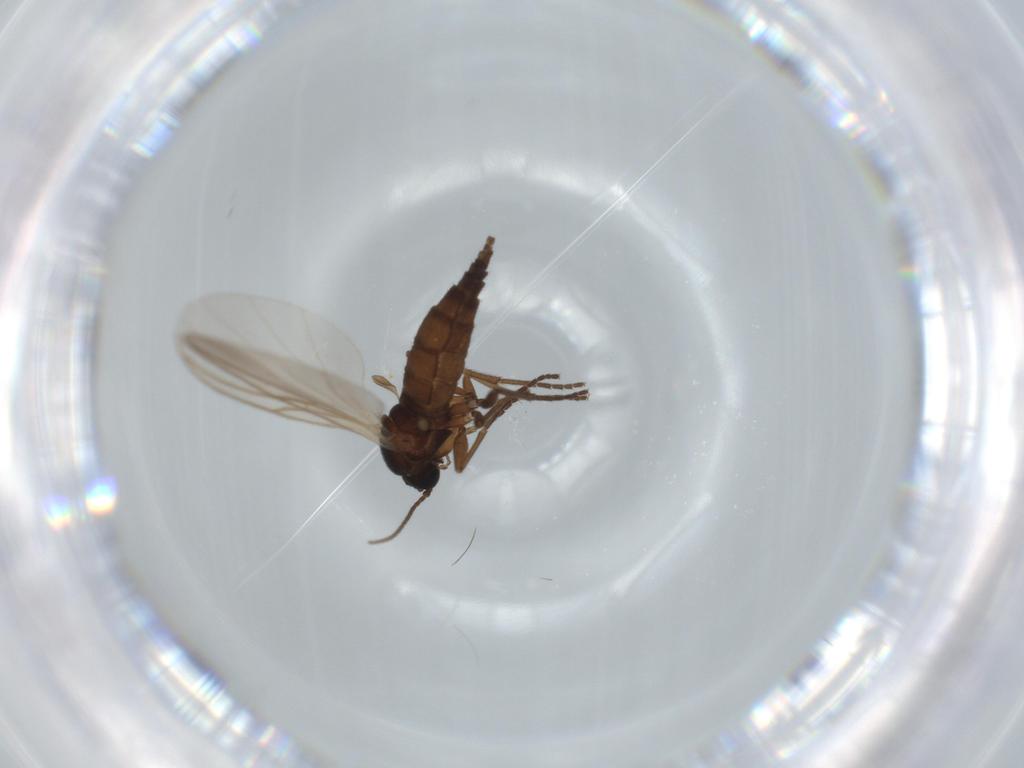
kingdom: Animalia
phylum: Arthropoda
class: Insecta
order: Diptera
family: Sciaridae
